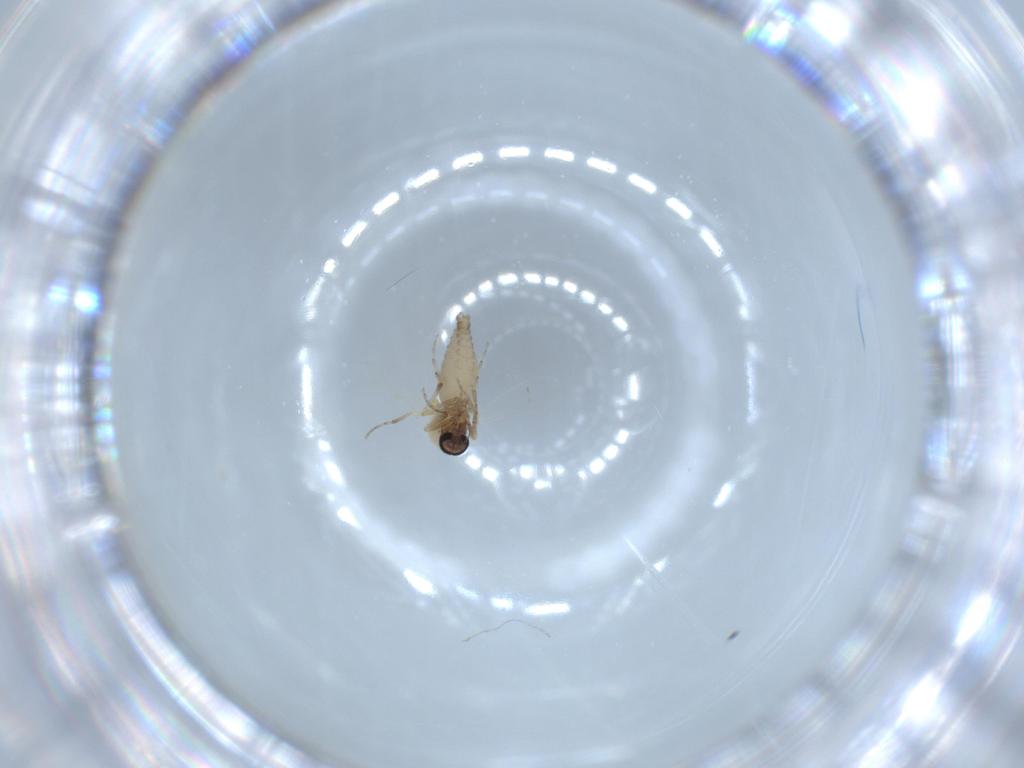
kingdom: Animalia
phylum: Arthropoda
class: Insecta
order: Diptera
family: Ceratopogonidae
